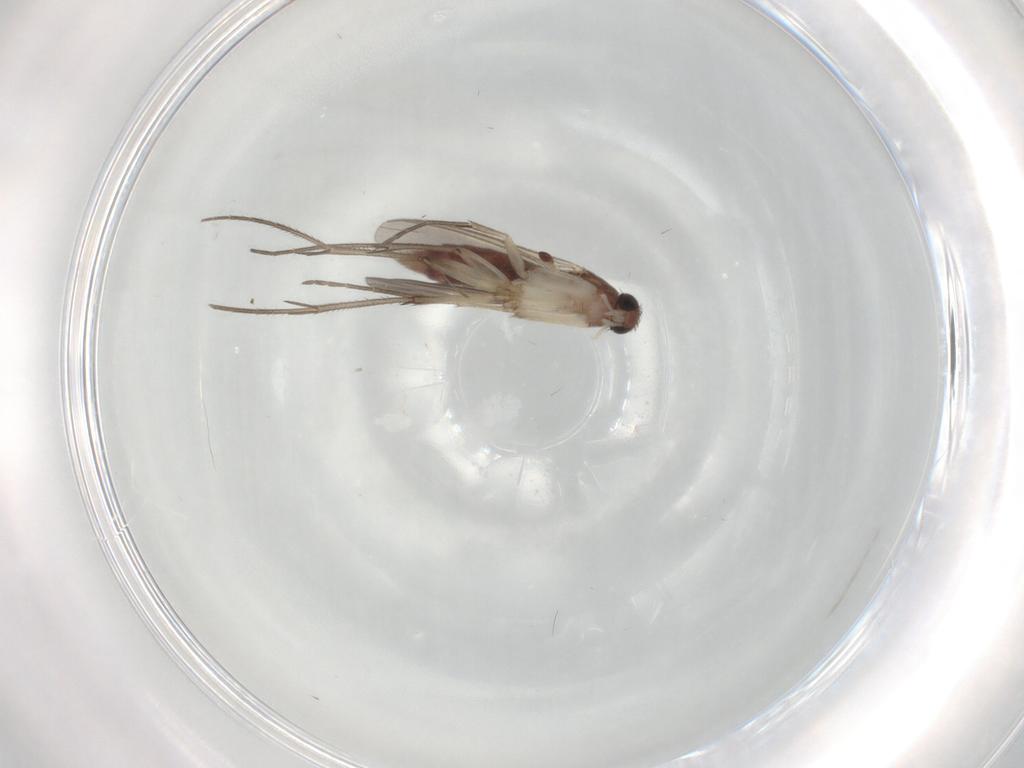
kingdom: Animalia
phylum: Arthropoda
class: Insecta
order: Diptera
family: Mycetophilidae
